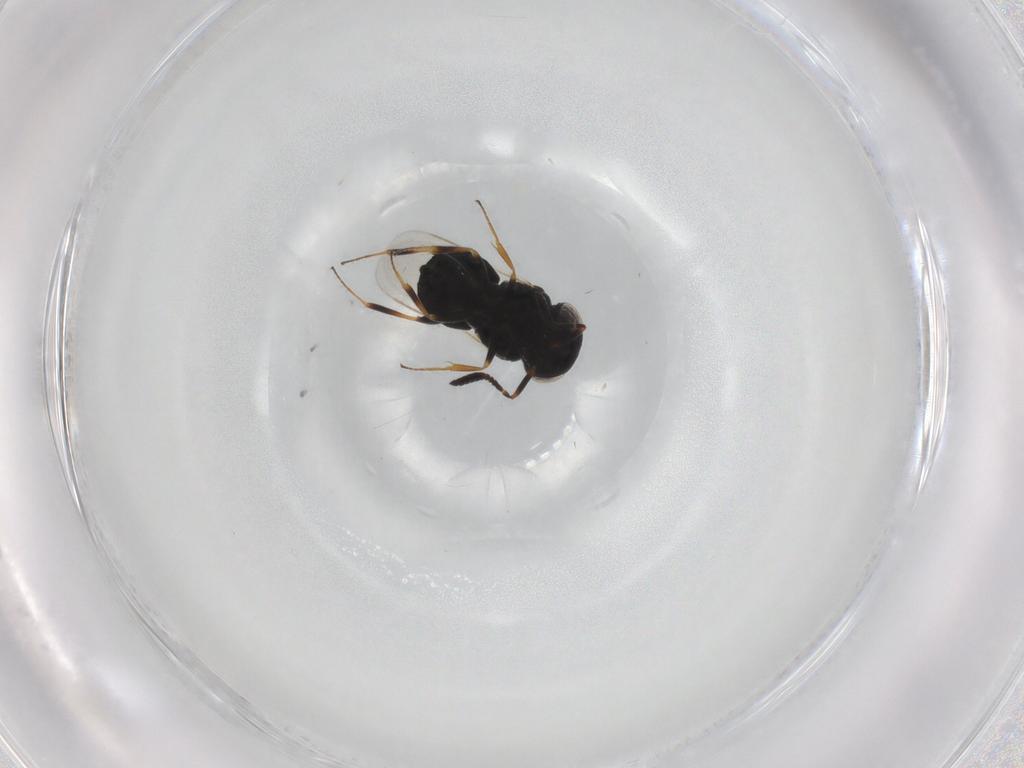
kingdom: Animalia
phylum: Arthropoda
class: Insecta
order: Hymenoptera
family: Scelionidae
